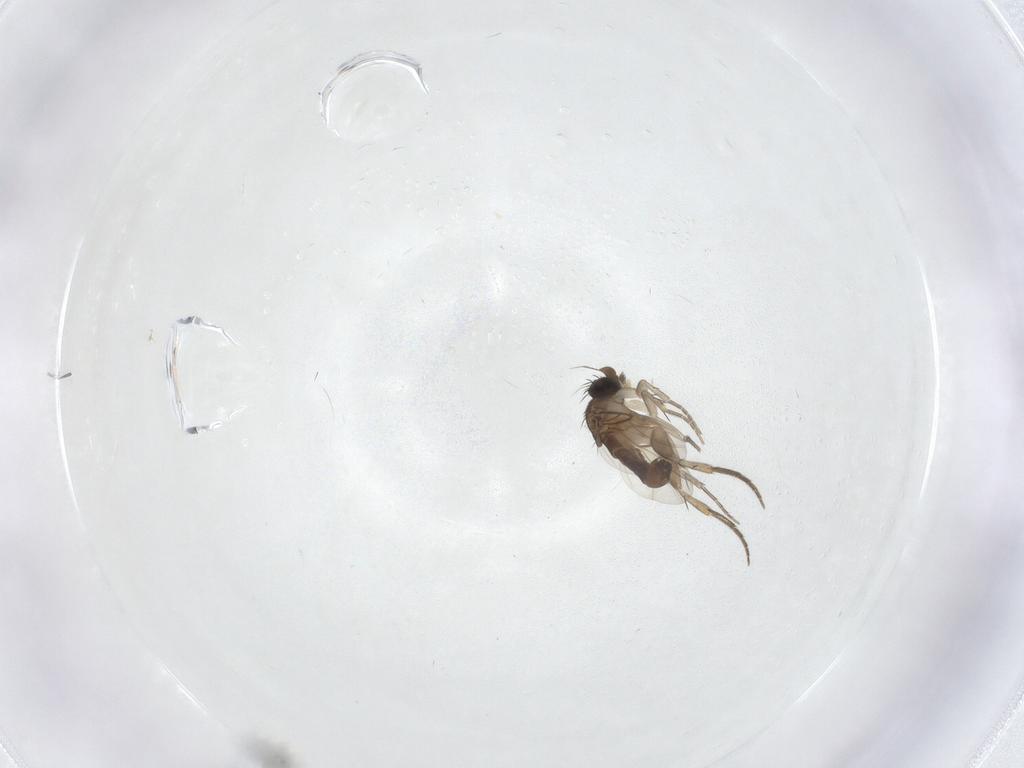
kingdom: Animalia
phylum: Arthropoda
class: Insecta
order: Diptera
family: Phoridae
